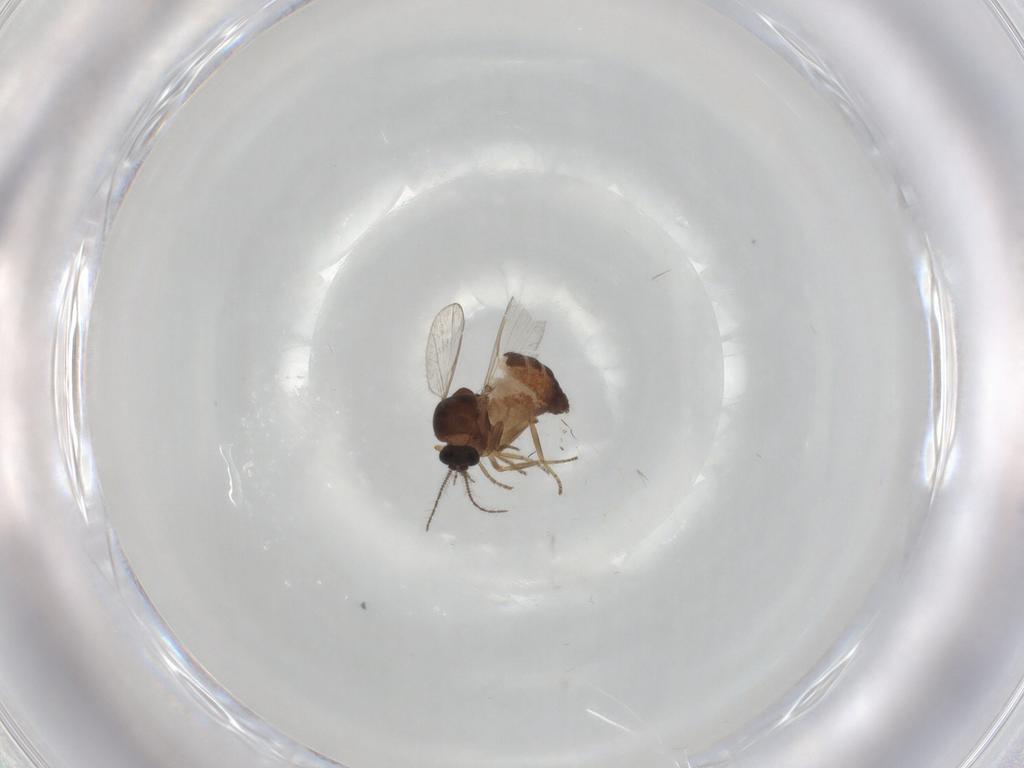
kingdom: Animalia
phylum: Arthropoda
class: Insecta
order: Diptera
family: Ceratopogonidae
